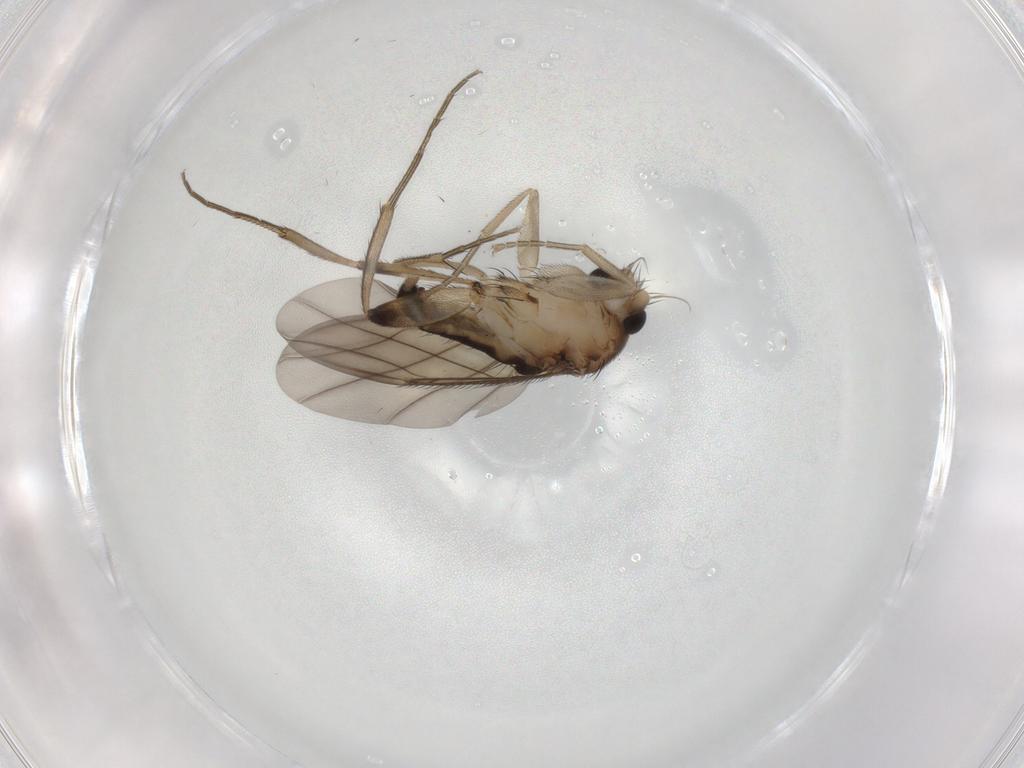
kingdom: Animalia
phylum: Arthropoda
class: Insecta
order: Diptera
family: Phoridae
